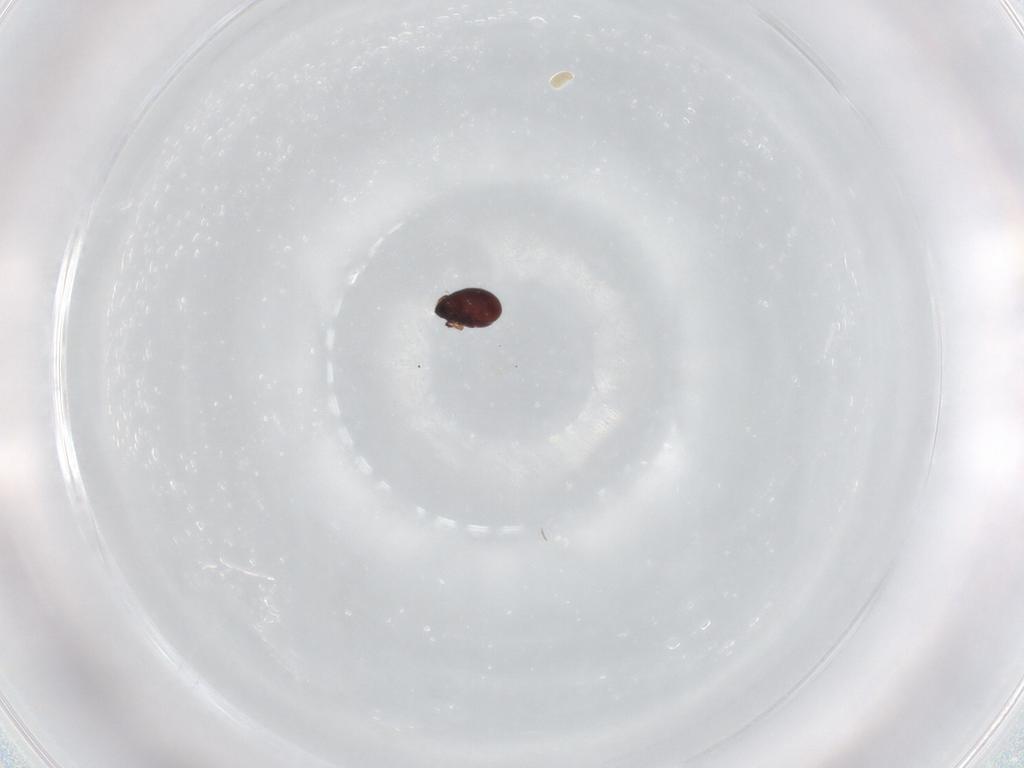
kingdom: Animalia
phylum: Arthropoda
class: Arachnida
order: Sarcoptiformes
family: Punctoribatidae
